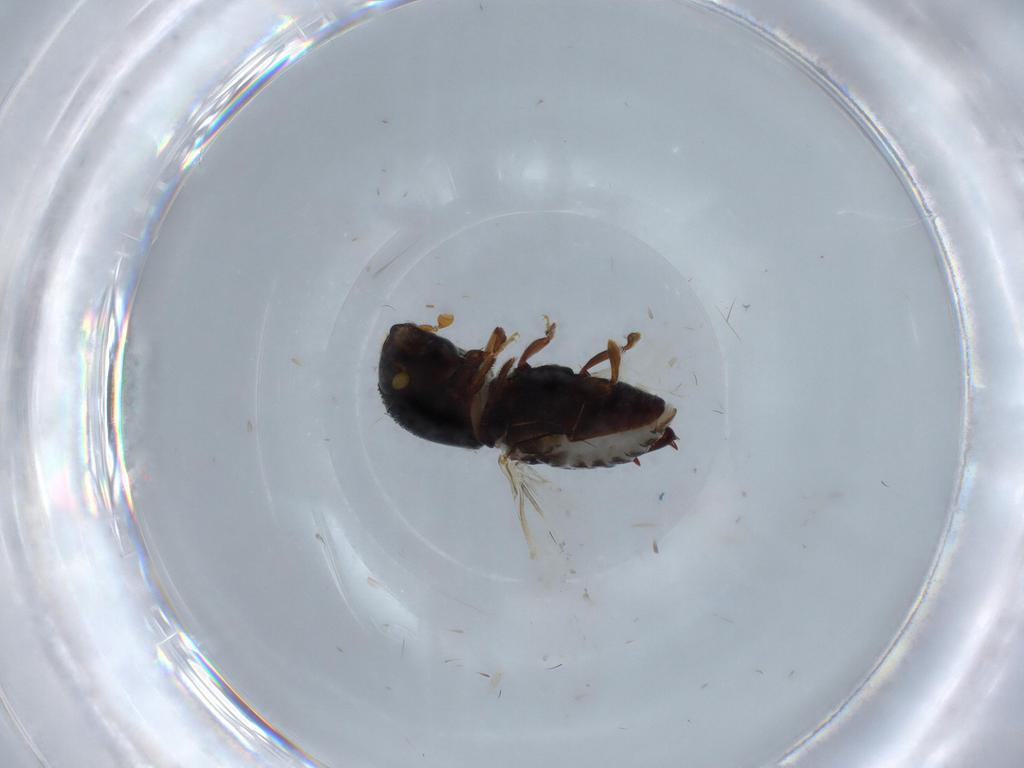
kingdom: Animalia
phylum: Arthropoda
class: Insecta
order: Coleoptera
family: Curculionidae
